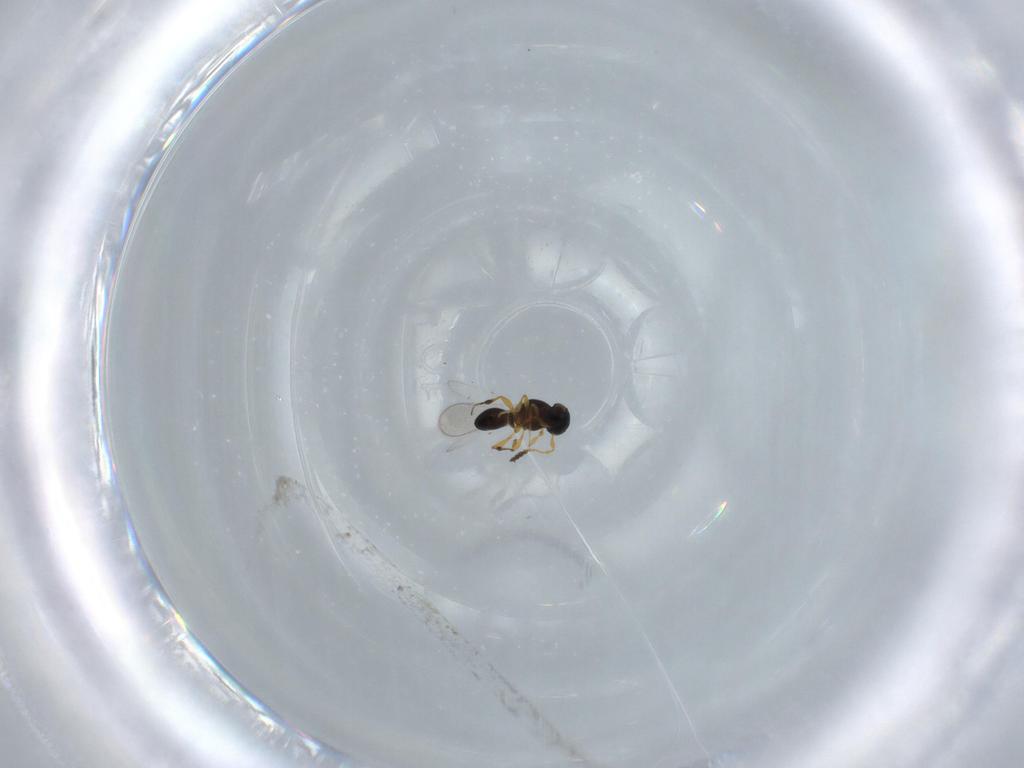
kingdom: Animalia
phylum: Arthropoda
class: Insecta
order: Hymenoptera
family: Platygastridae
